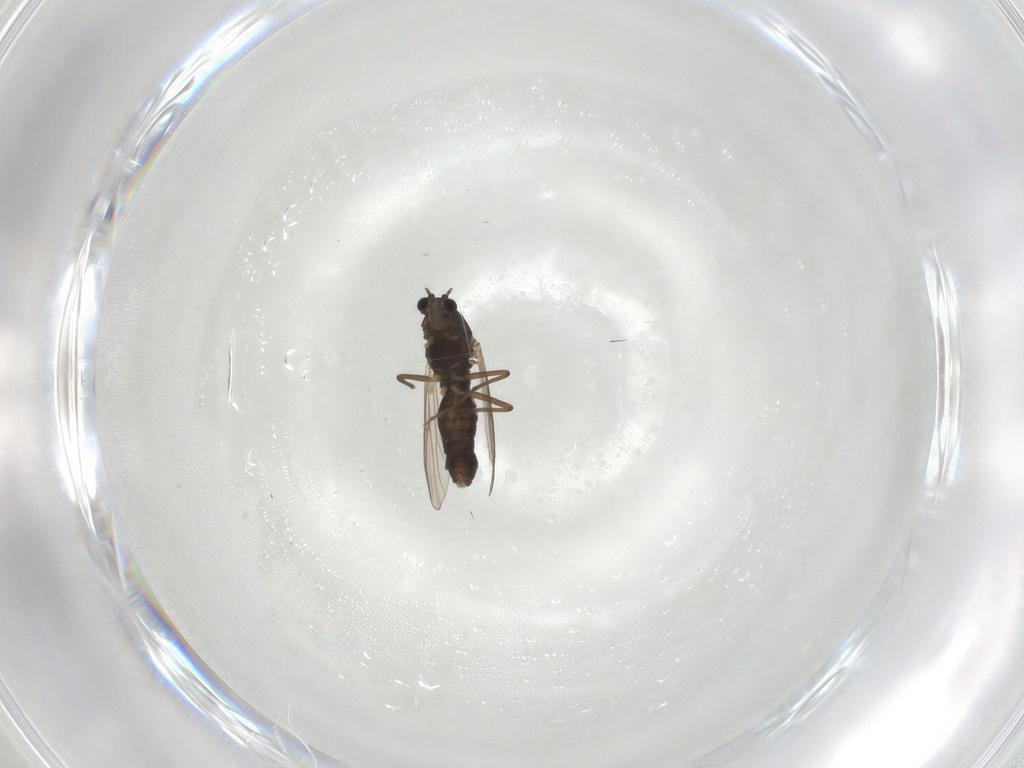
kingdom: Animalia
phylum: Arthropoda
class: Insecta
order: Diptera
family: Chironomidae
